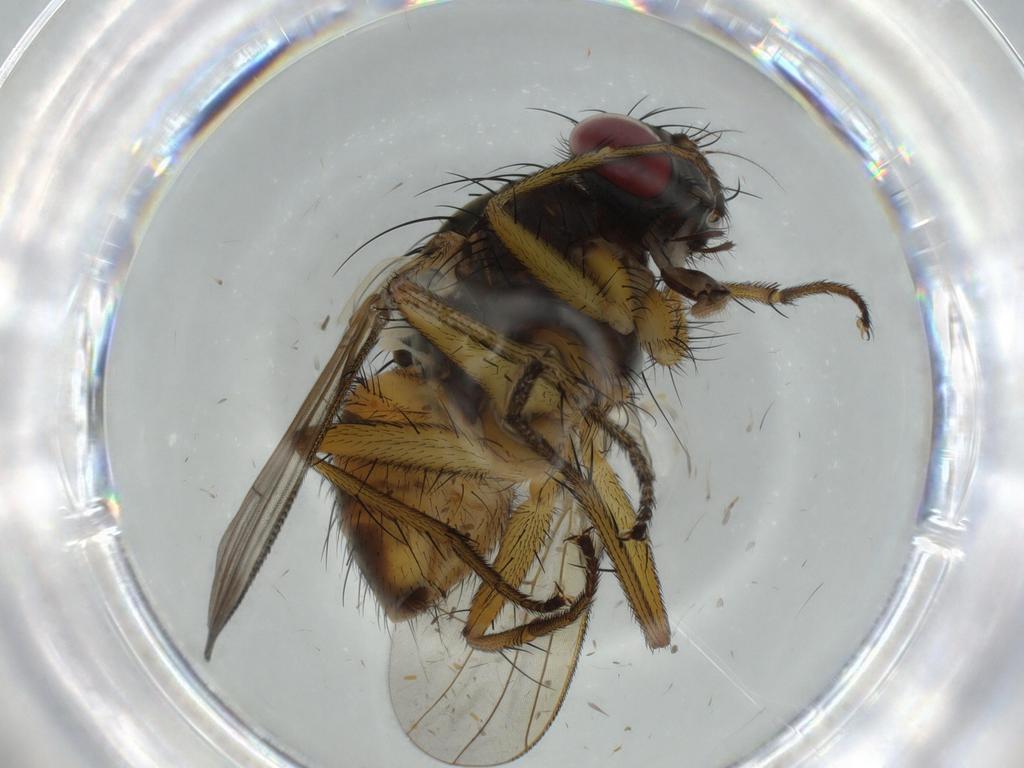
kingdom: Animalia
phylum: Arthropoda
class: Insecta
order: Diptera
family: Muscidae
